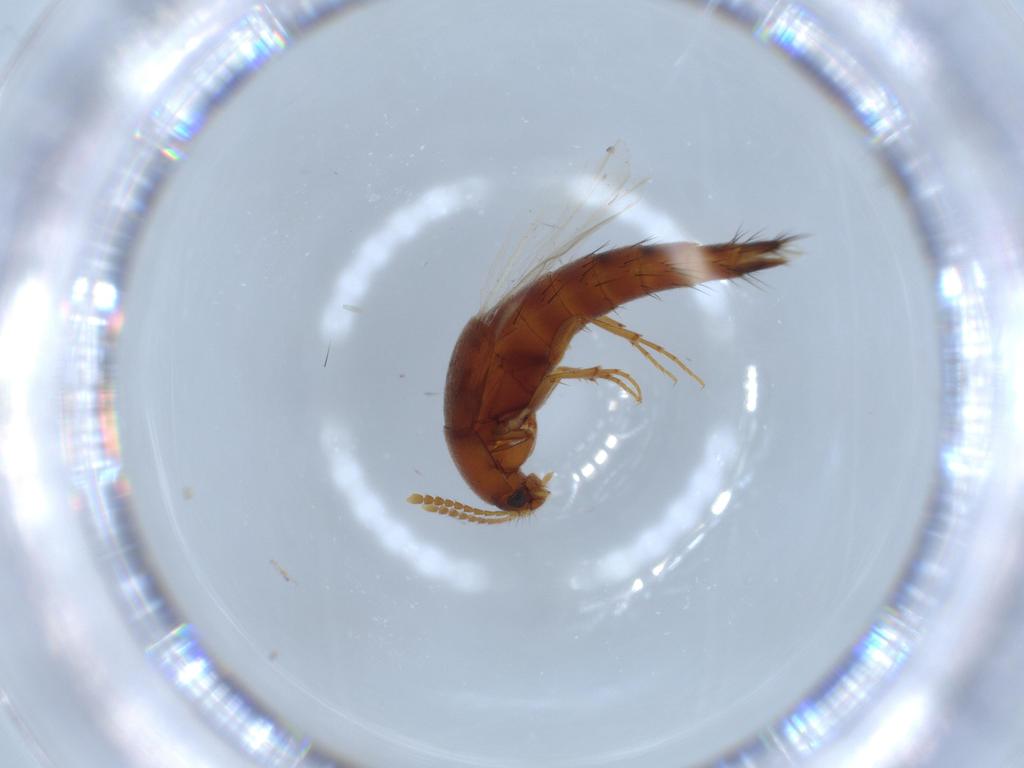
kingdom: Animalia
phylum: Arthropoda
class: Insecta
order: Coleoptera
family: Staphylinidae
